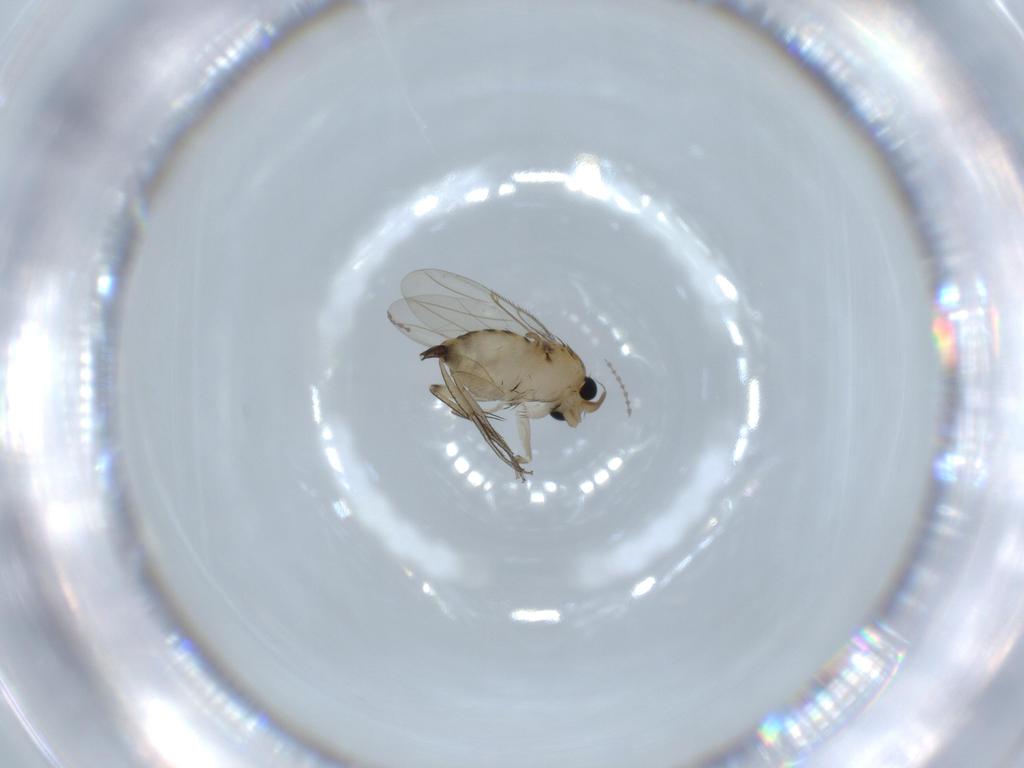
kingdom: Animalia
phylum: Arthropoda
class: Insecta
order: Diptera
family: Phoridae
